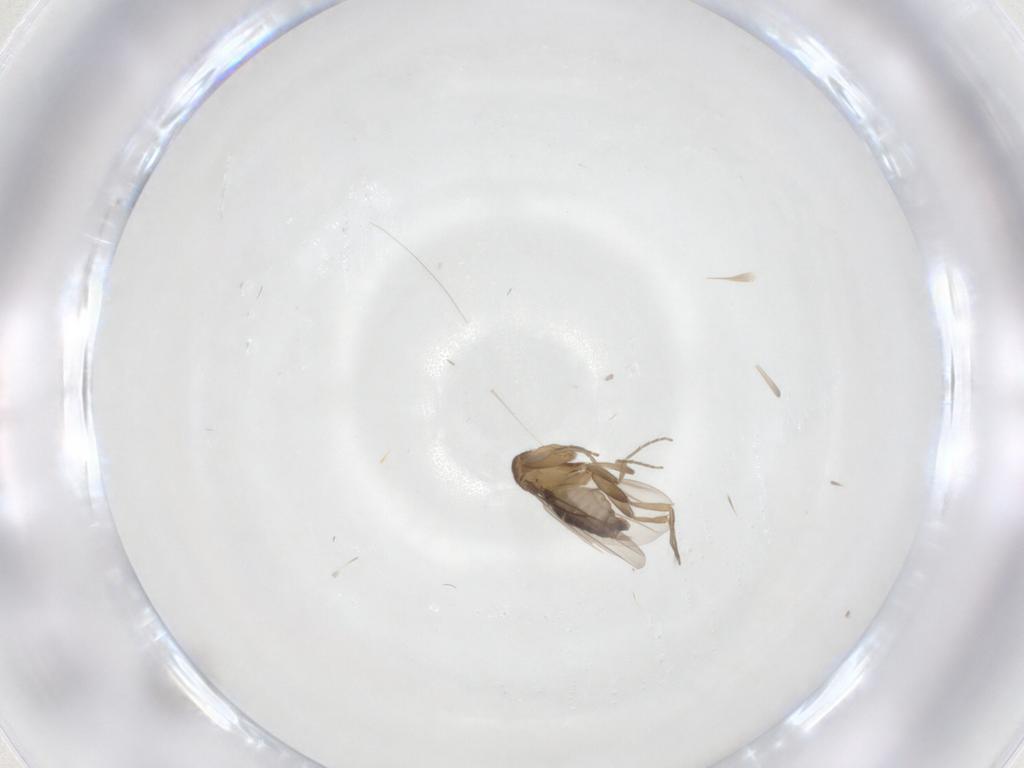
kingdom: Animalia
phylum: Arthropoda
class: Insecta
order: Diptera
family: Phoridae
